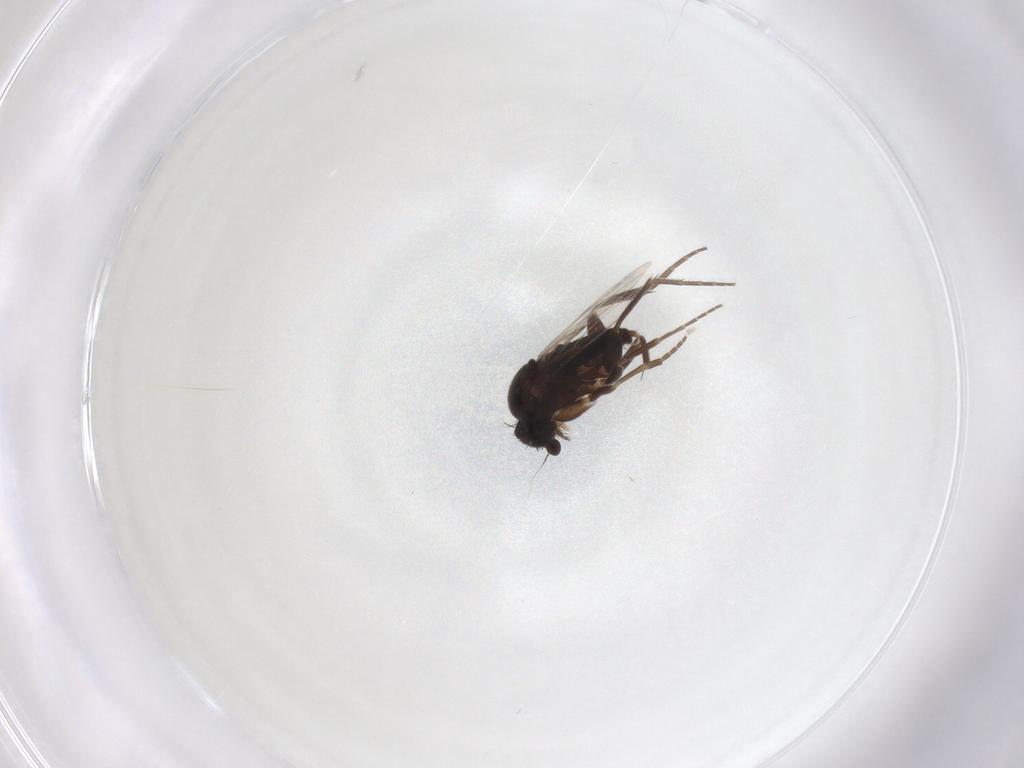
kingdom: Animalia
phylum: Arthropoda
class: Insecta
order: Diptera
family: Phoridae
